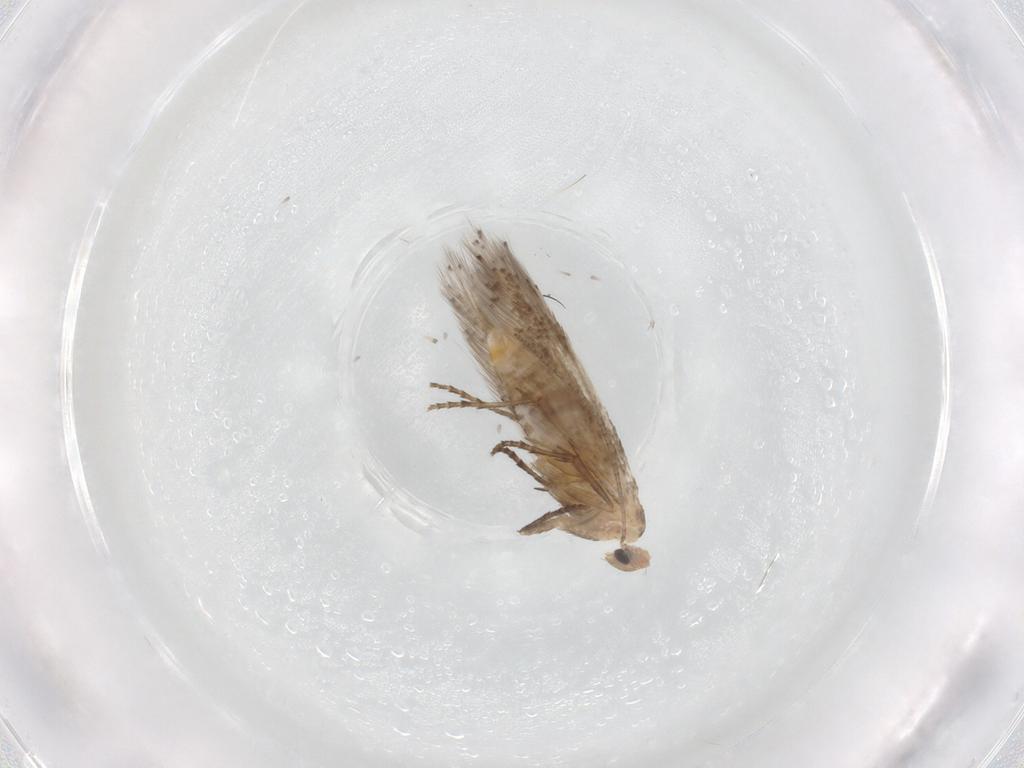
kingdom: Animalia
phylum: Arthropoda
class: Insecta
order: Lepidoptera
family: Bucculatricidae
